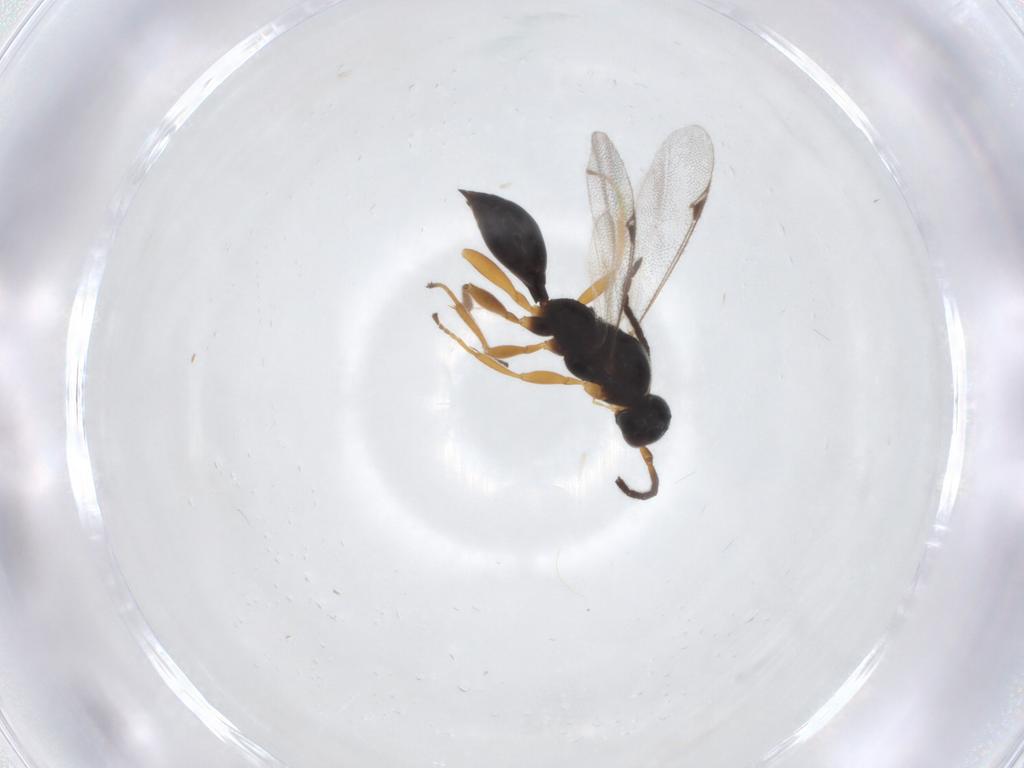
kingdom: Animalia
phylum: Arthropoda
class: Insecta
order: Hymenoptera
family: Proctotrupidae
